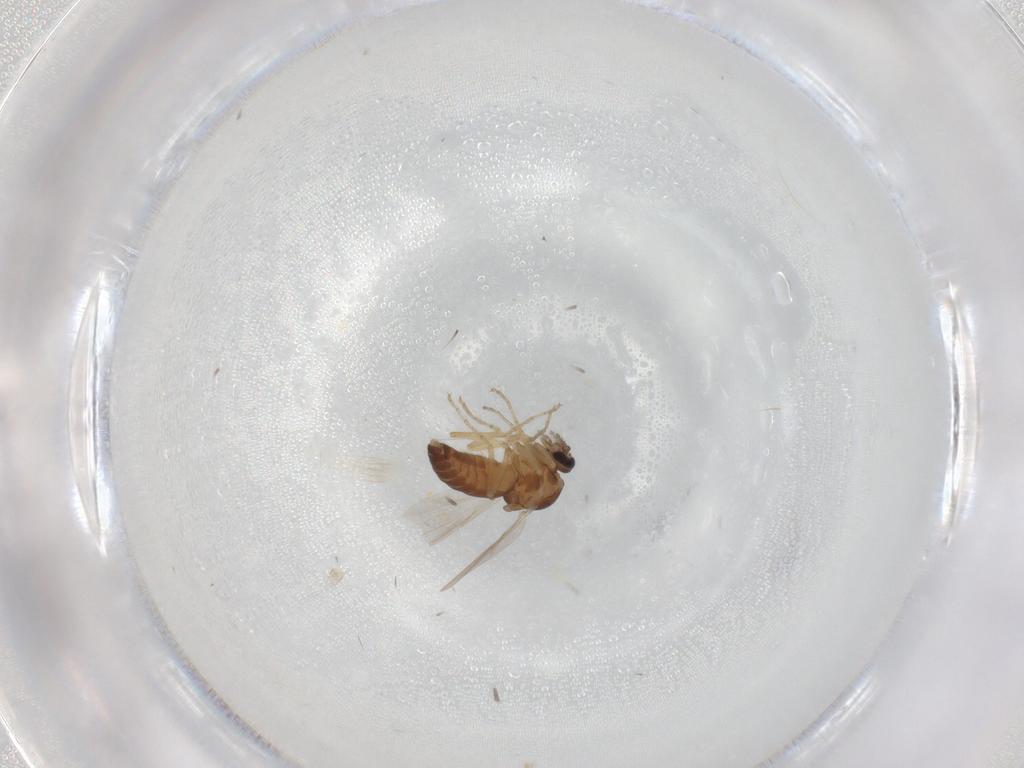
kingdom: Animalia
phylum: Arthropoda
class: Insecta
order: Diptera
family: Ceratopogonidae
